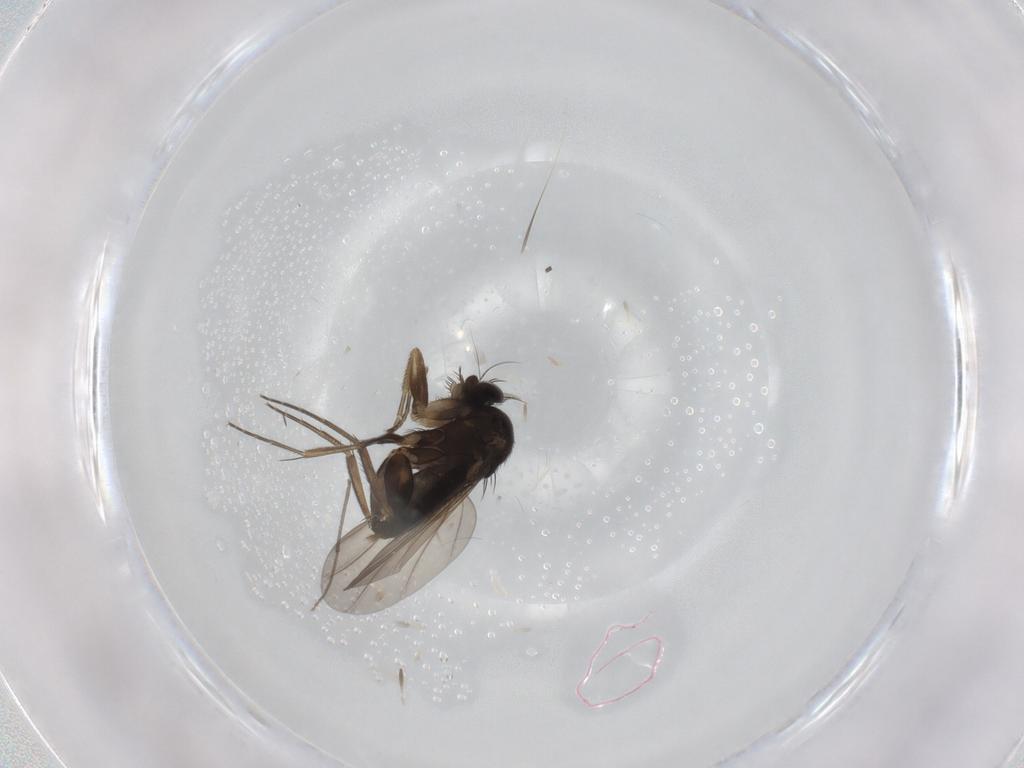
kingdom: Animalia
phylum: Arthropoda
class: Insecta
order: Diptera
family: Phoridae
